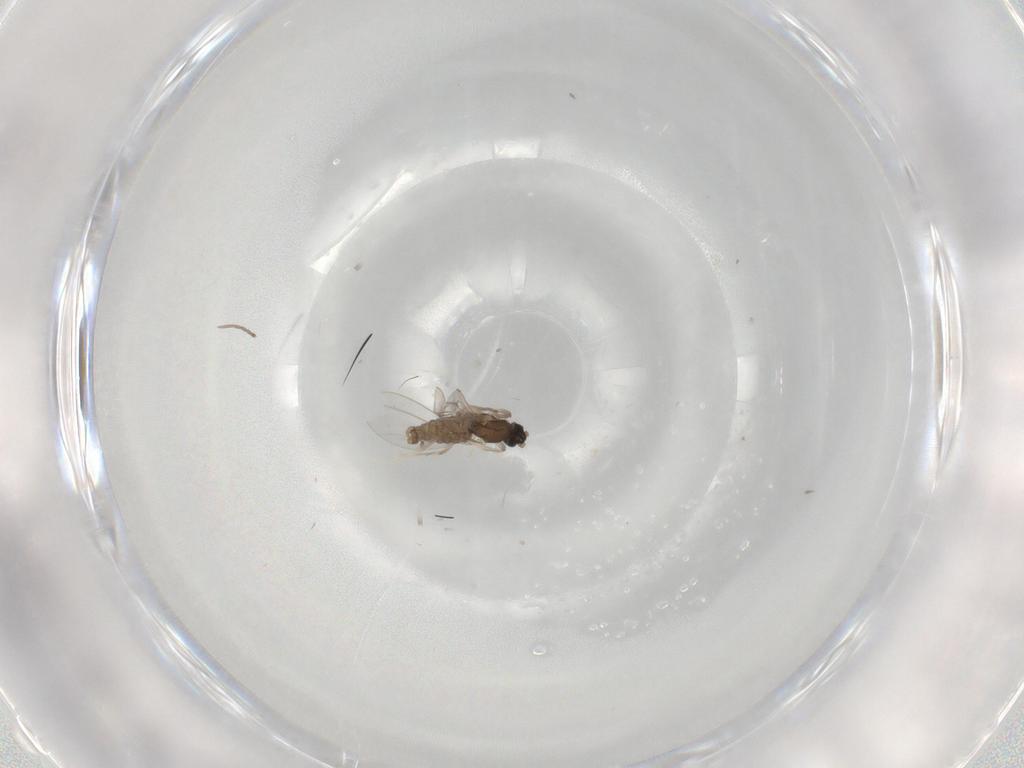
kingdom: Animalia
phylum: Arthropoda
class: Insecta
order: Diptera
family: Cecidomyiidae
